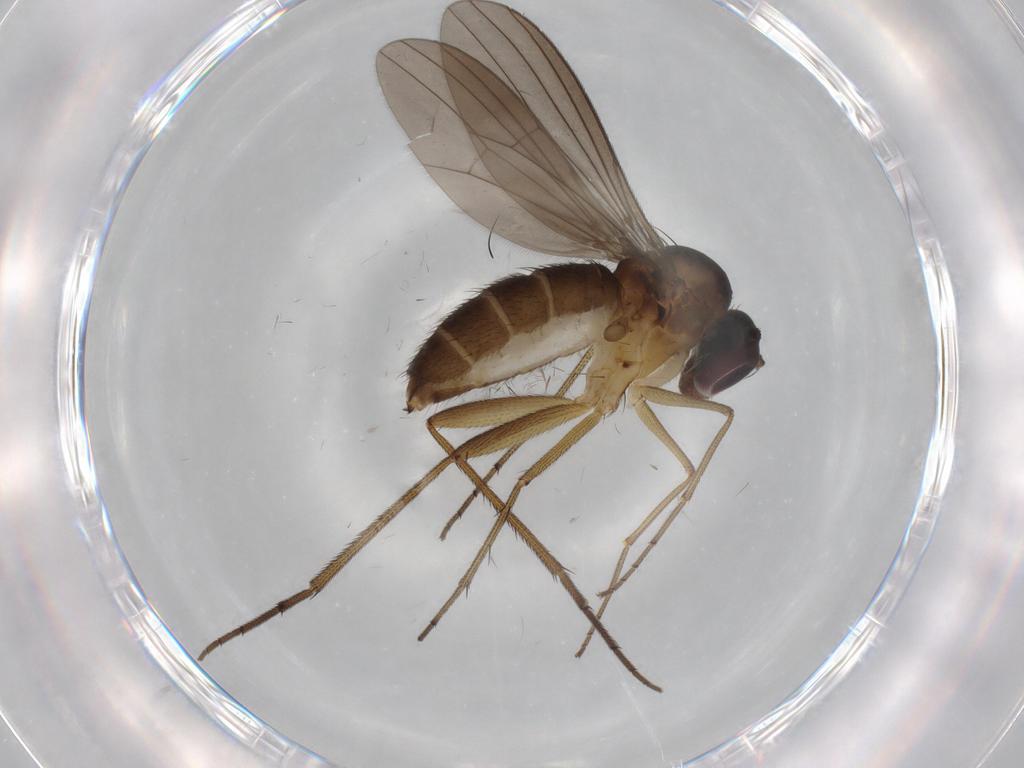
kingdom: Animalia
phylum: Arthropoda
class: Insecta
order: Diptera
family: Dolichopodidae
